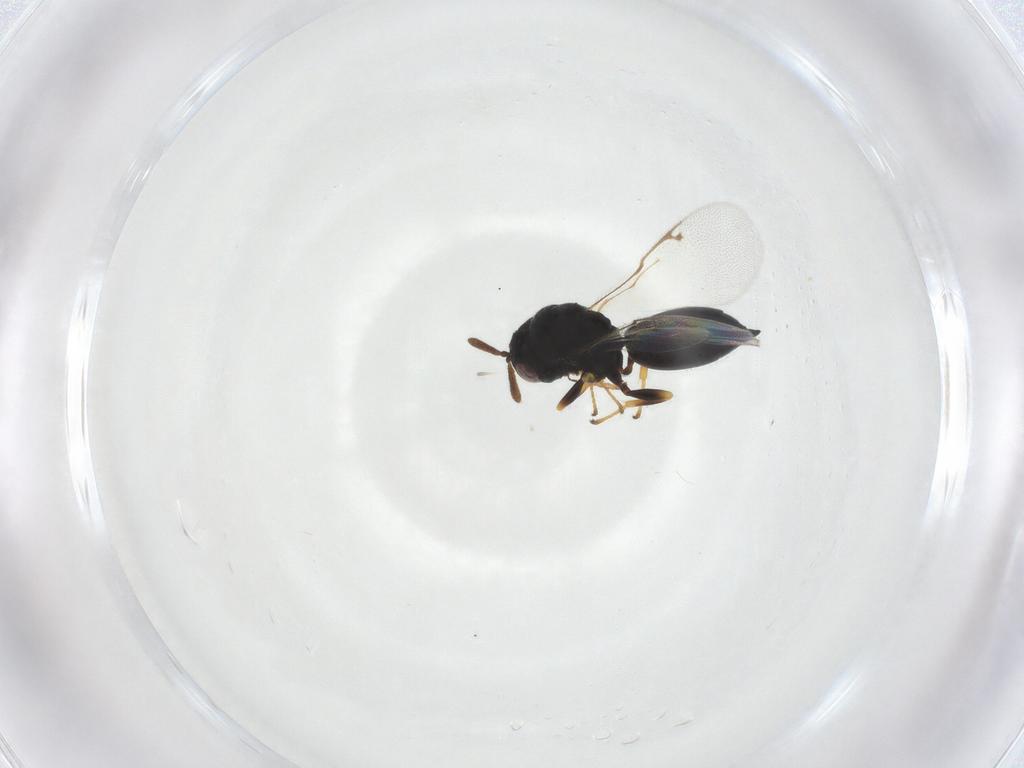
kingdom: Animalia
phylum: Arthropoda
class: Insecta
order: Hymenoptera
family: Eurytomidae
